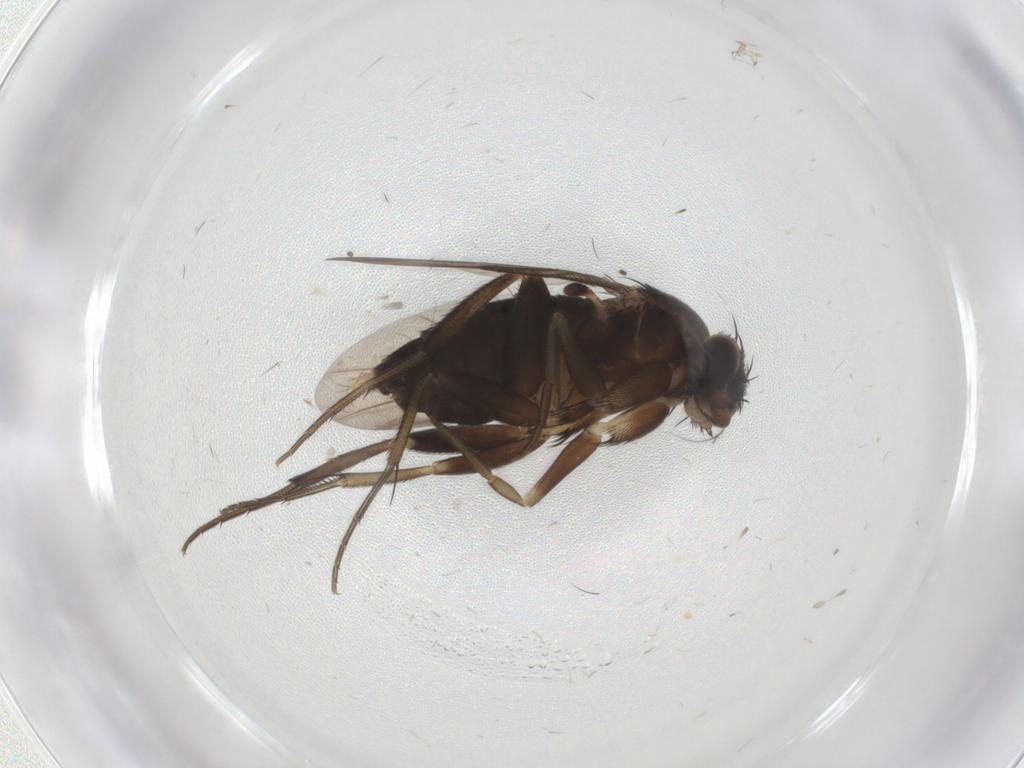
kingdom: Animalia
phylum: Arthropoda
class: Insecta
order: Diptera
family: Phoridae
